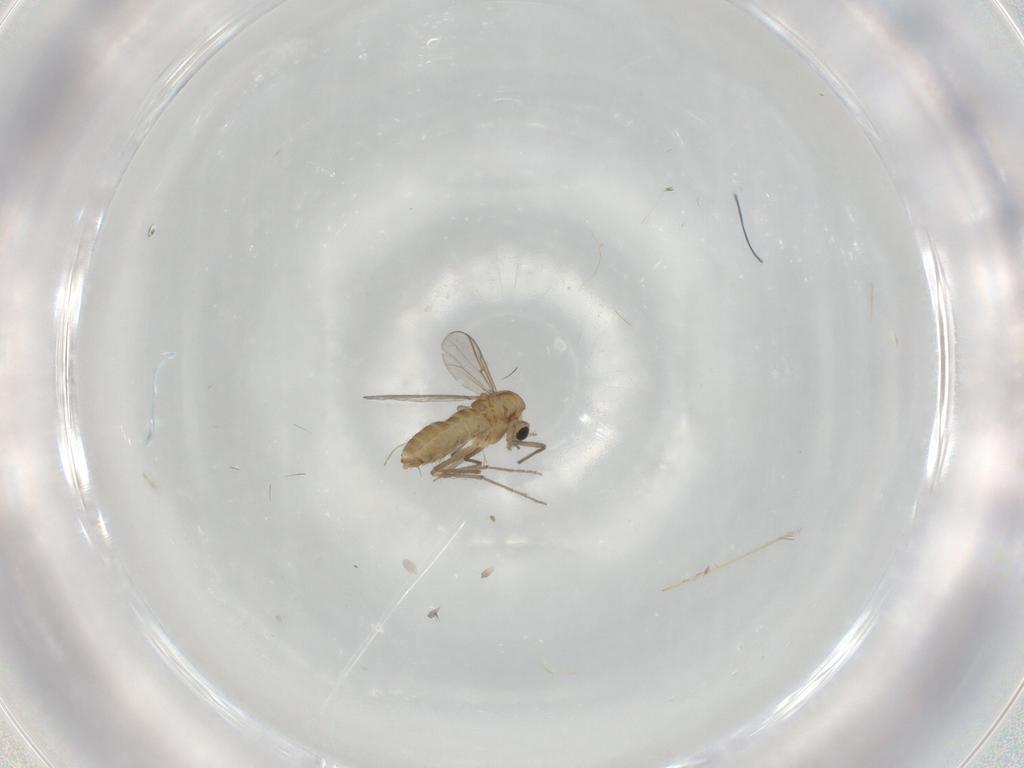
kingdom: Animalia
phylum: Arthropoda
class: Insecta
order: Diptera
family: Chironomidae
